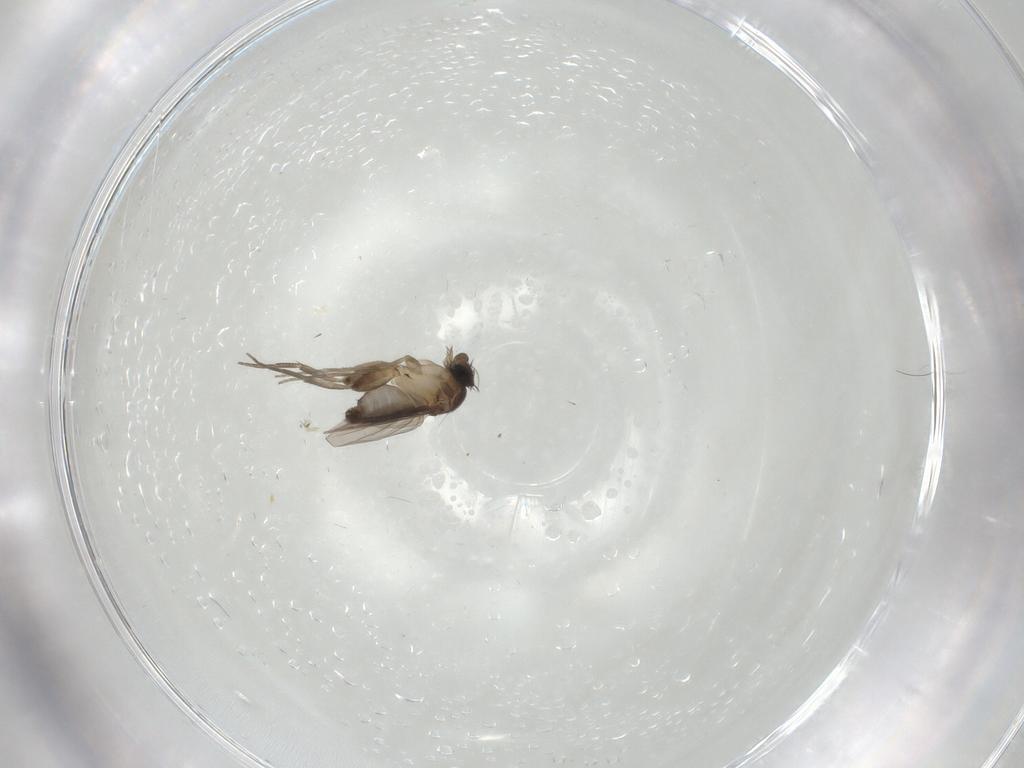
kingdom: Animalia
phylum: Arthropoda
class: Insecta
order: Diptera
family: Phoridae
